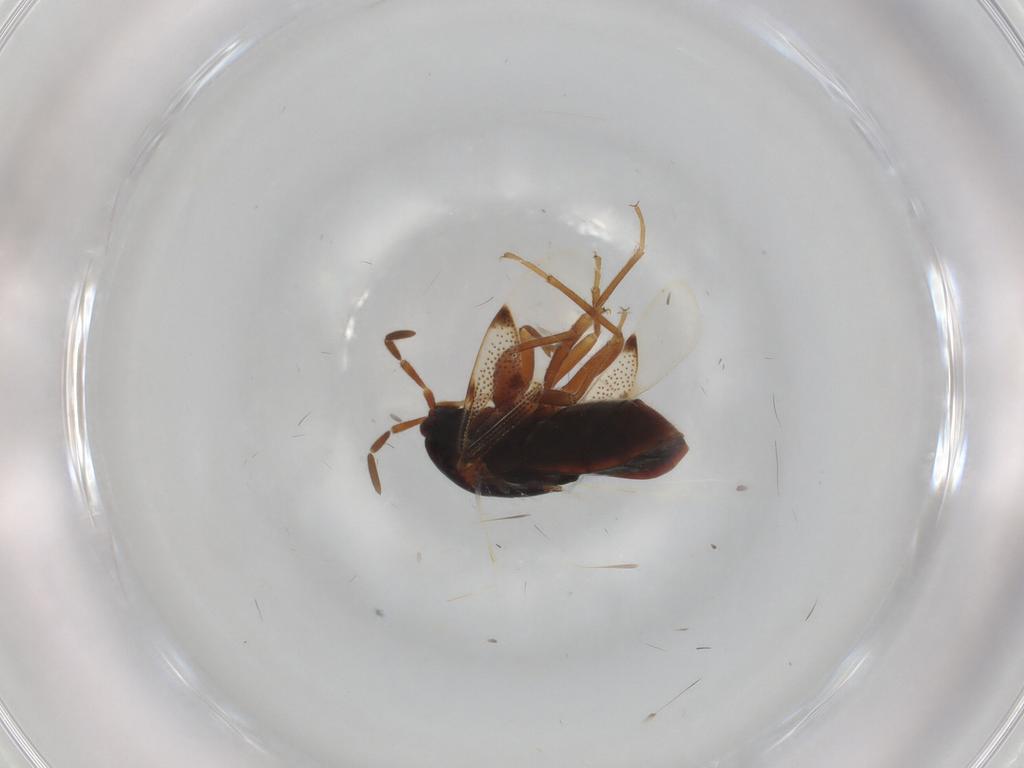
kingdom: Animalia
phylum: Arthropoda
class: Insecta
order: Hemiptera
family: Rhyparochromidae
